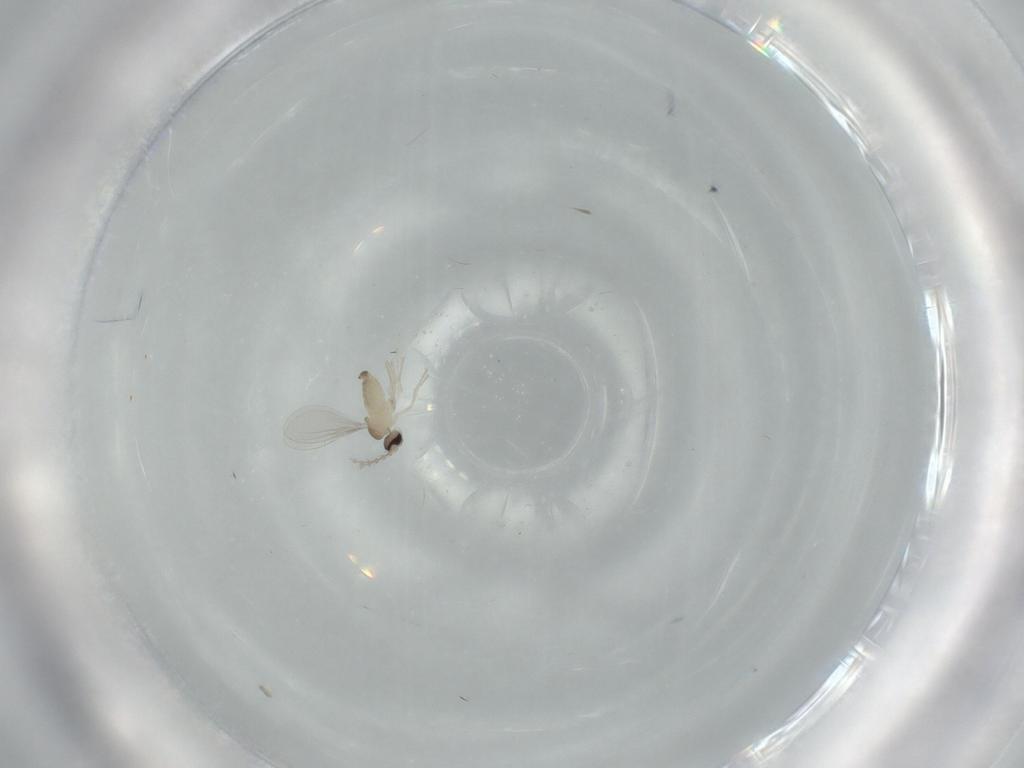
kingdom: Animalia
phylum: Arthropoda
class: Insecta
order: Diptera
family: Cecidomyiidae
